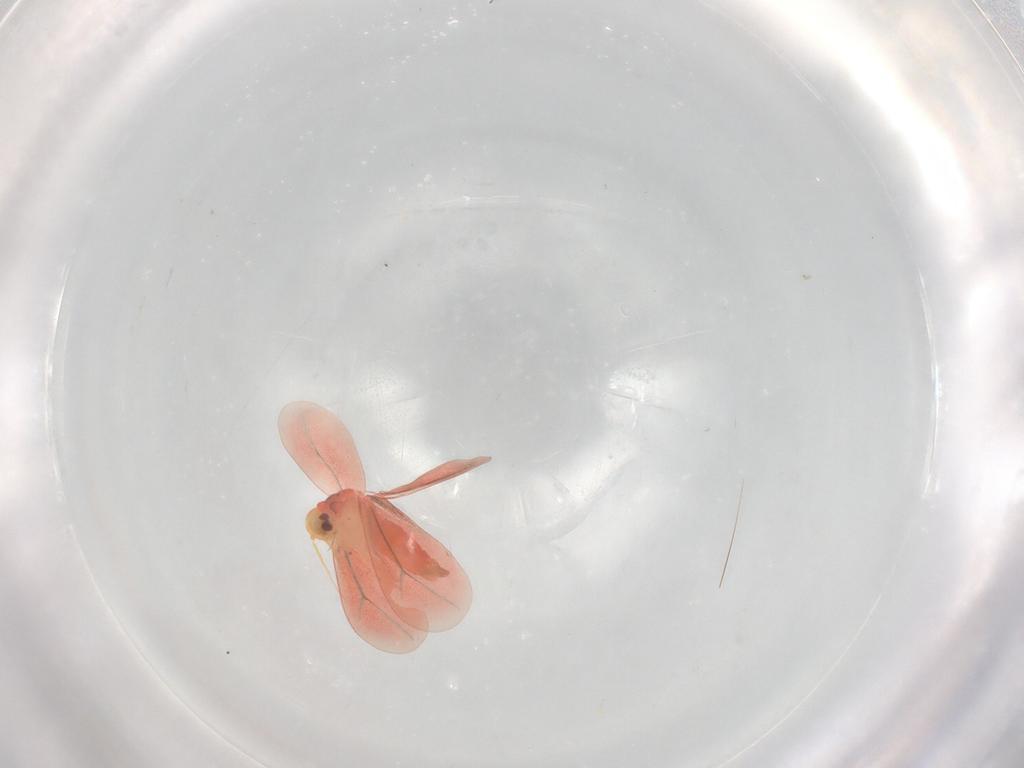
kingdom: Animalia
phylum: Arthropoda
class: Insecta
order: Hemiptera
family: Aleyrodidae
